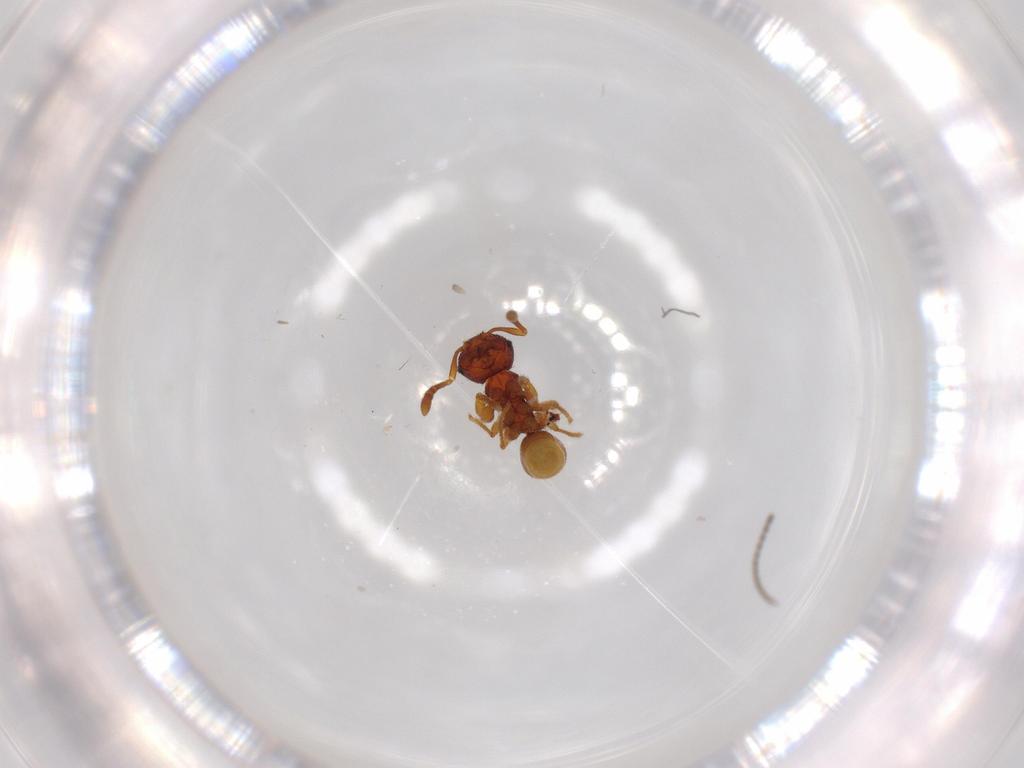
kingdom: Animalia
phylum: Arthropoda
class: Insecta
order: Hymenoptera
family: Formicidae
